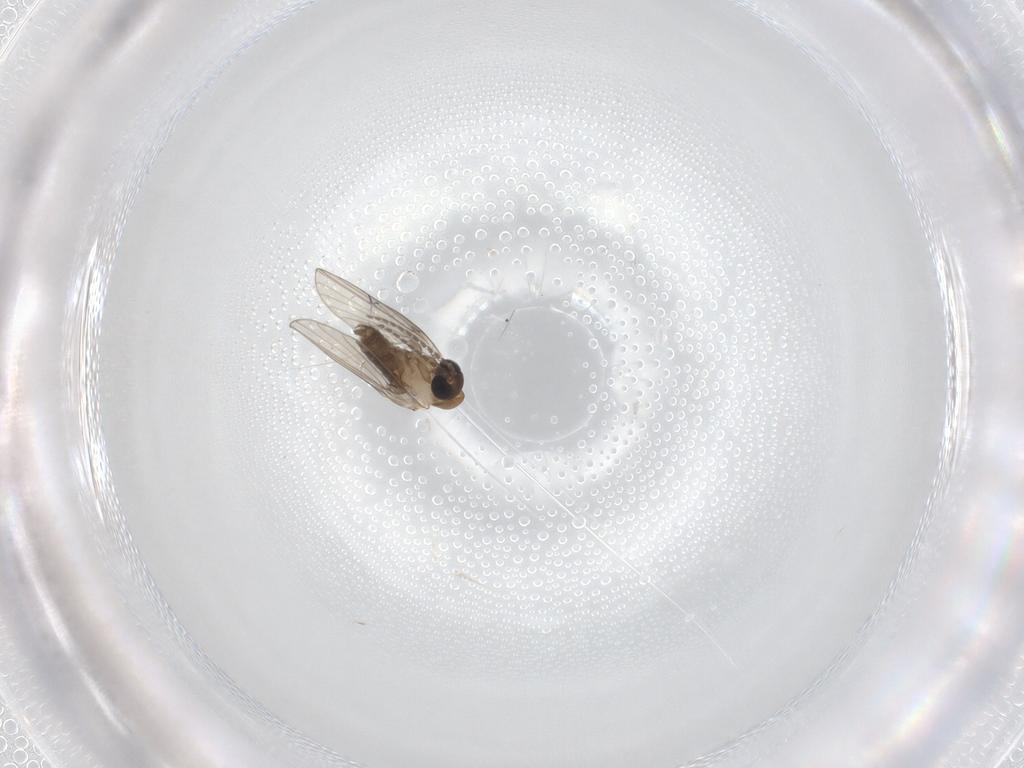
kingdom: Animalia
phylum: Arthropoda
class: Insecta
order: Diptera
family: Psychodidae
